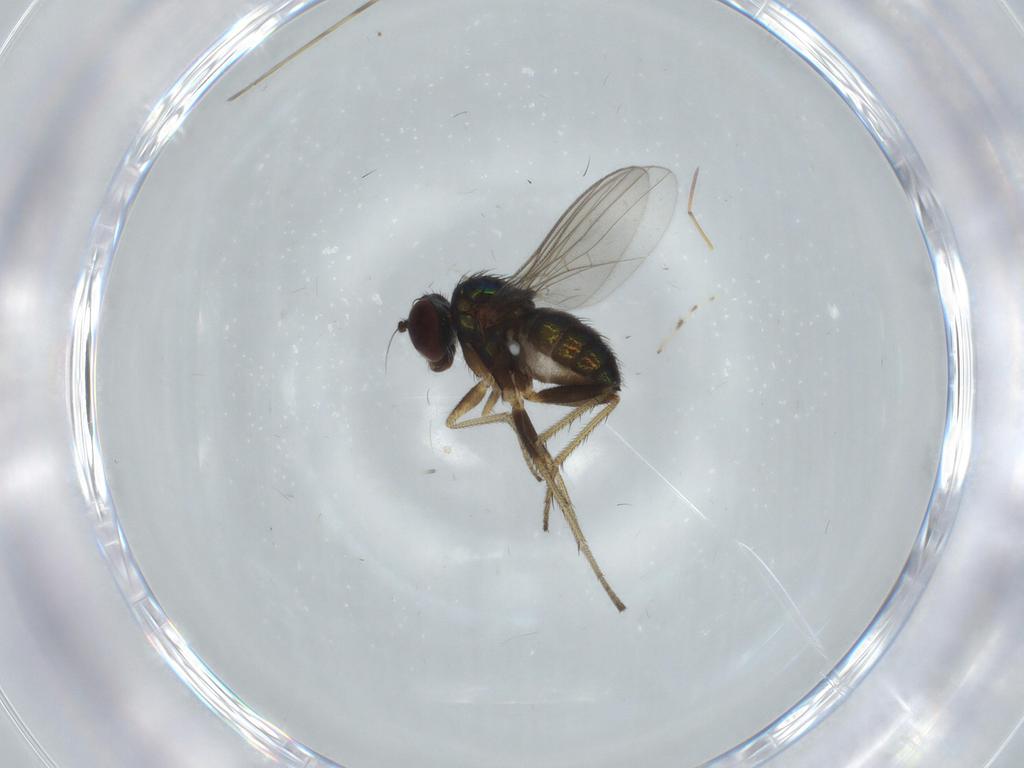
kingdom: Animalia
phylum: Arthropoda
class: Insecta
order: Diptera
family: Dolichopodidae
